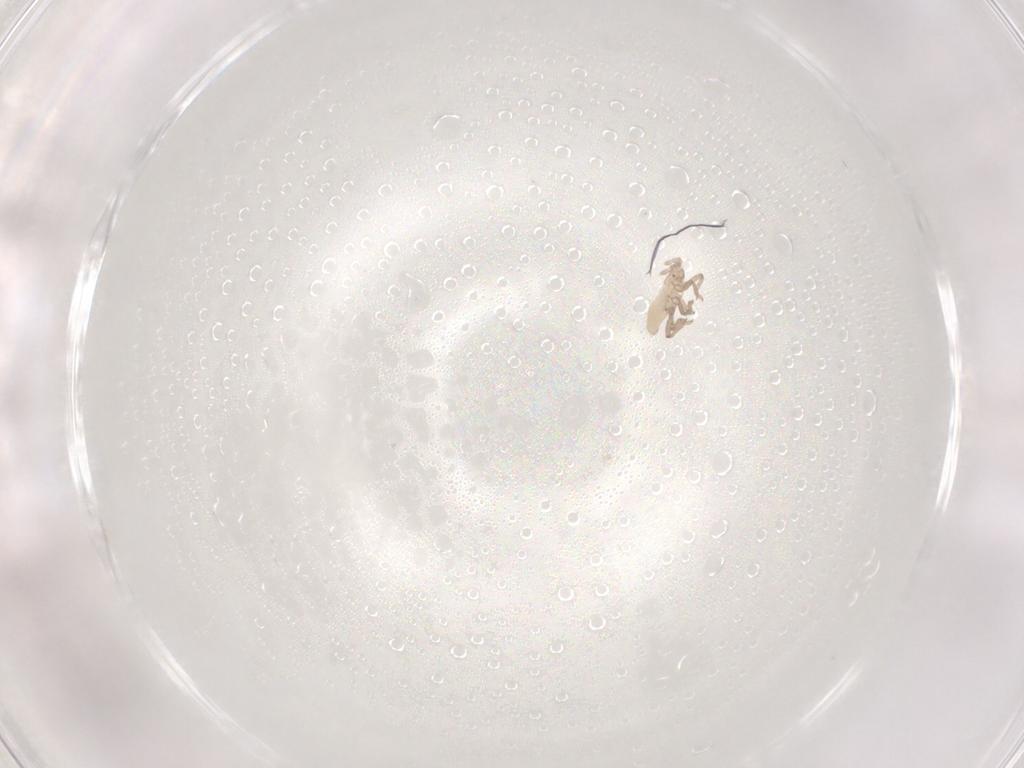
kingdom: Animalia
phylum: Arthropoda
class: Insecta
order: Hemiptera
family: Aphididae
